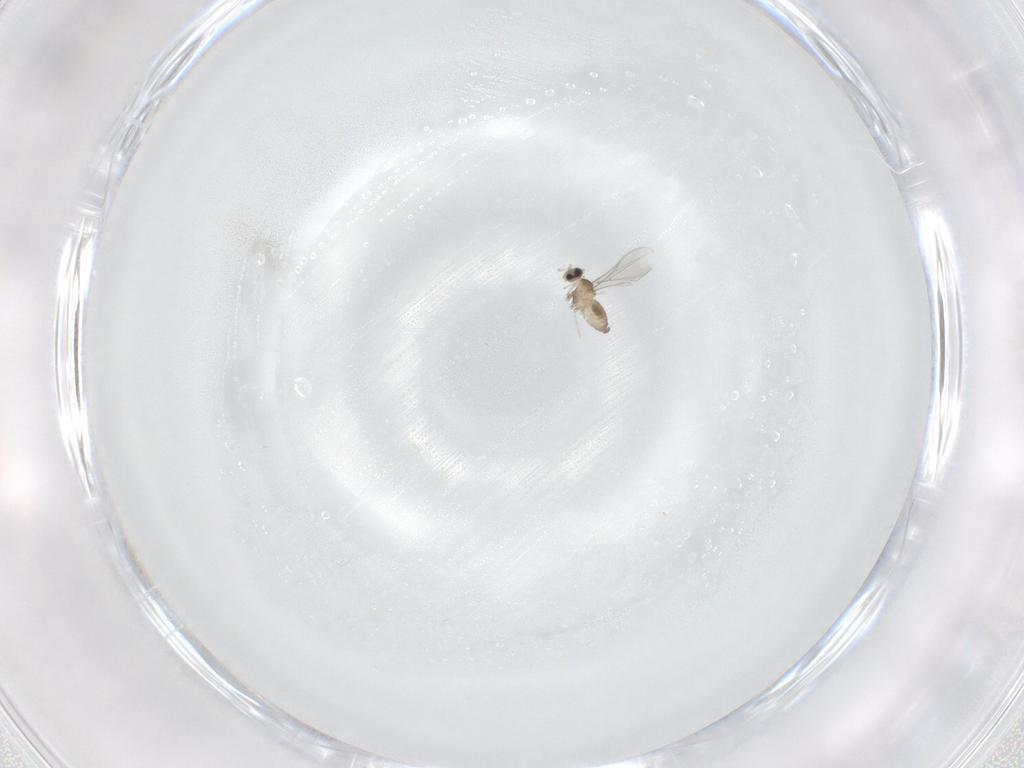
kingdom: Animalia
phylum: Arthropoda
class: Insecta
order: Diptera
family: Cecidomyiidae
